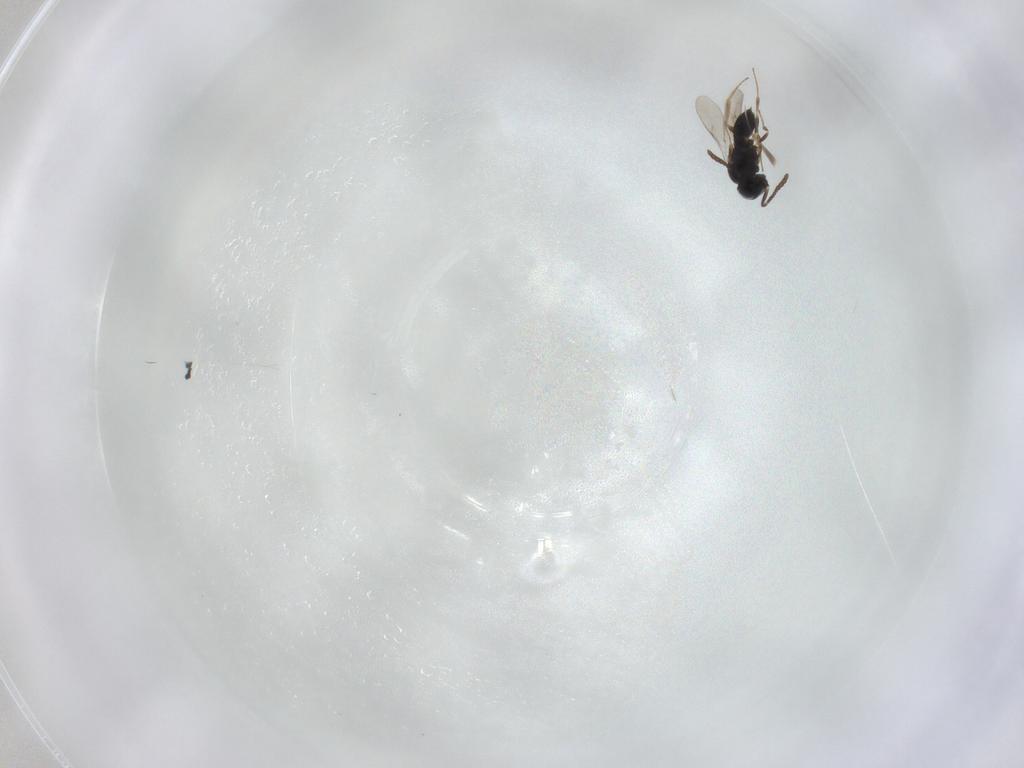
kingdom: Animalia
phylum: Arthropoda
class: Insecta
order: Hymenoptera
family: Scelionidae
